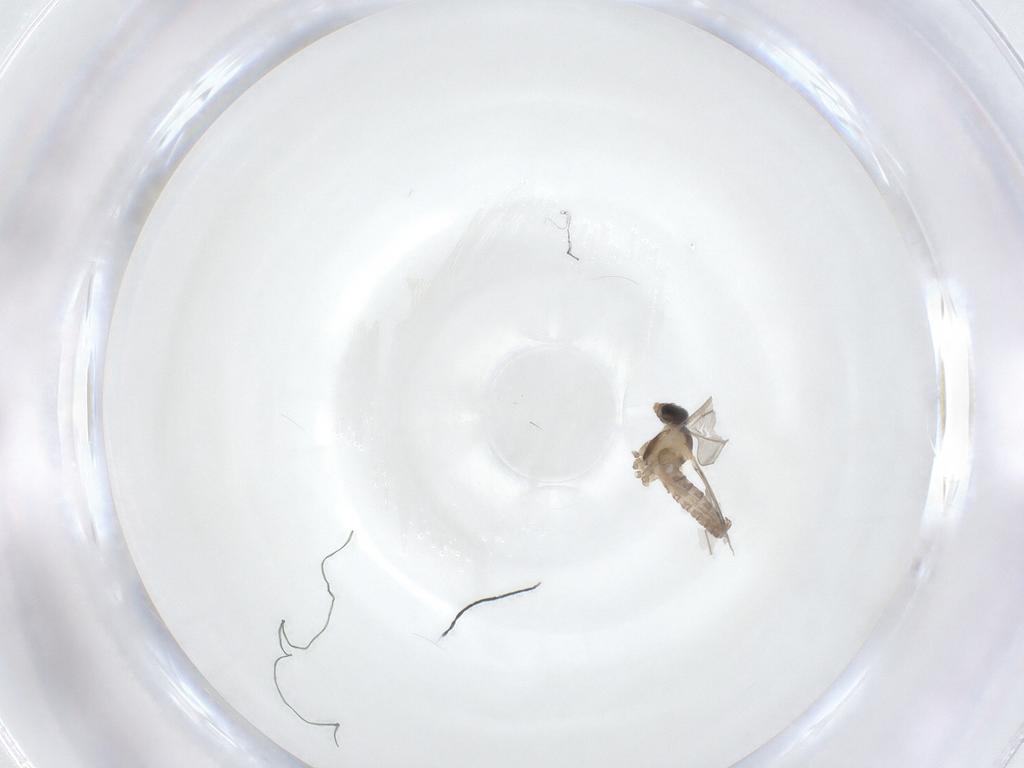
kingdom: Animalia
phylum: Arthropoda
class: Insecta
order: Diptera
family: Cecidomyiidae
